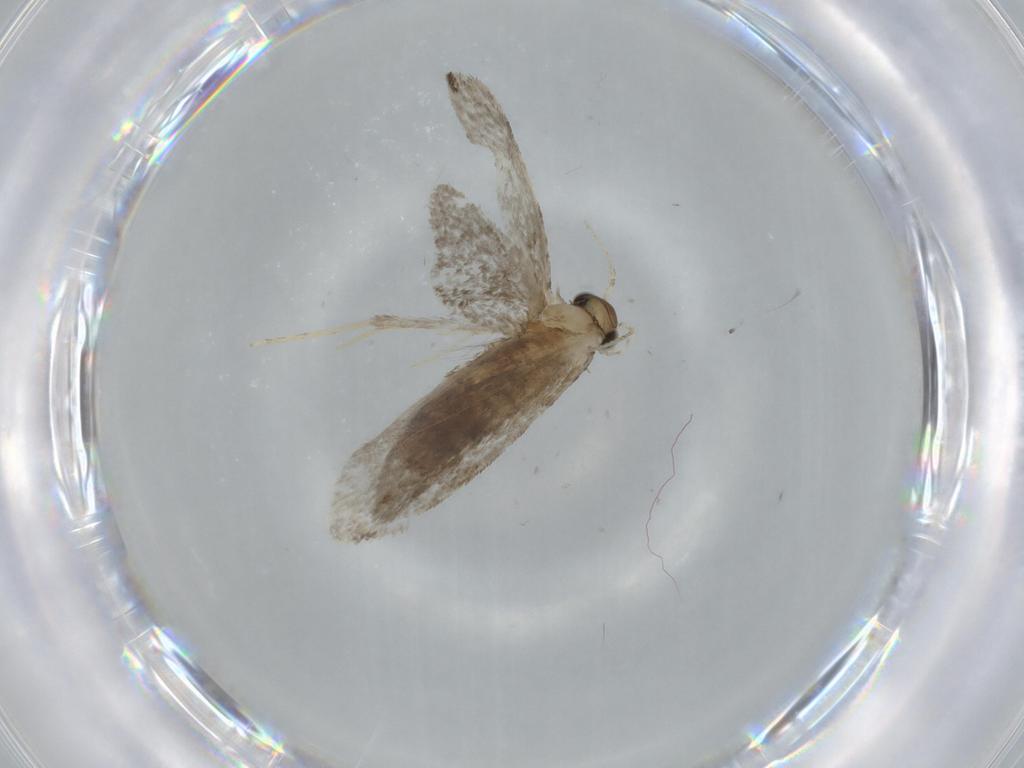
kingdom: Animalia
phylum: Arthropoda
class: Insecta
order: Lepidoptera
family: Tineidae
